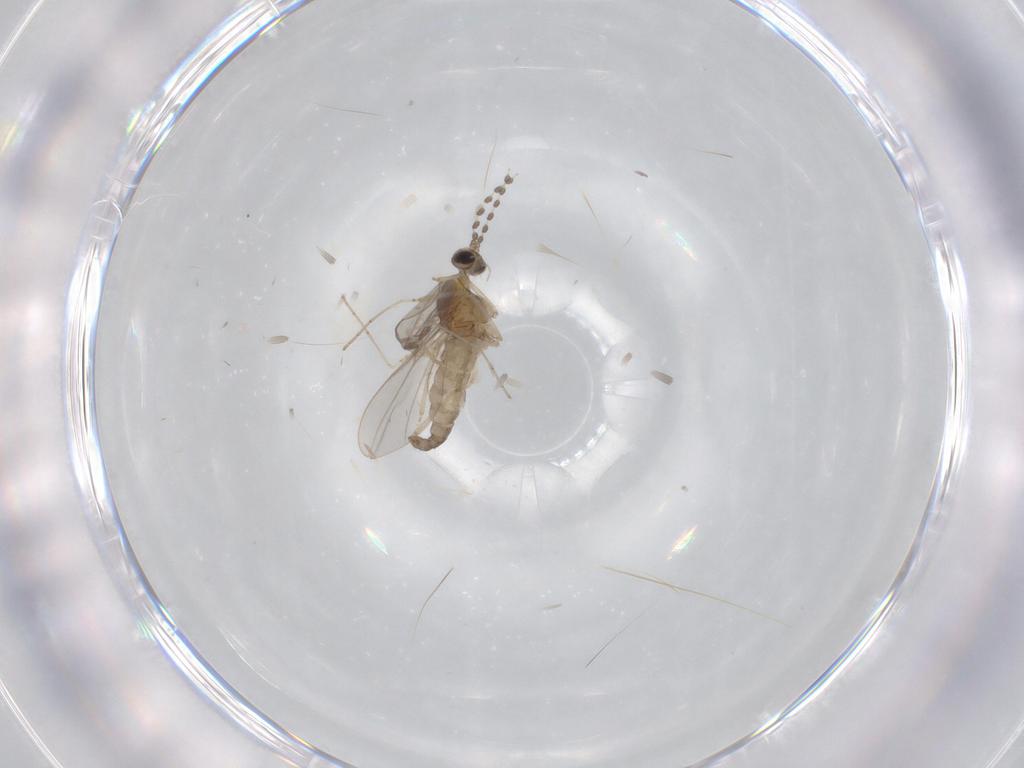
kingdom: Animalia
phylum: Arthropoda
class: Insecta
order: Diptera
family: Cecidomyiidae
